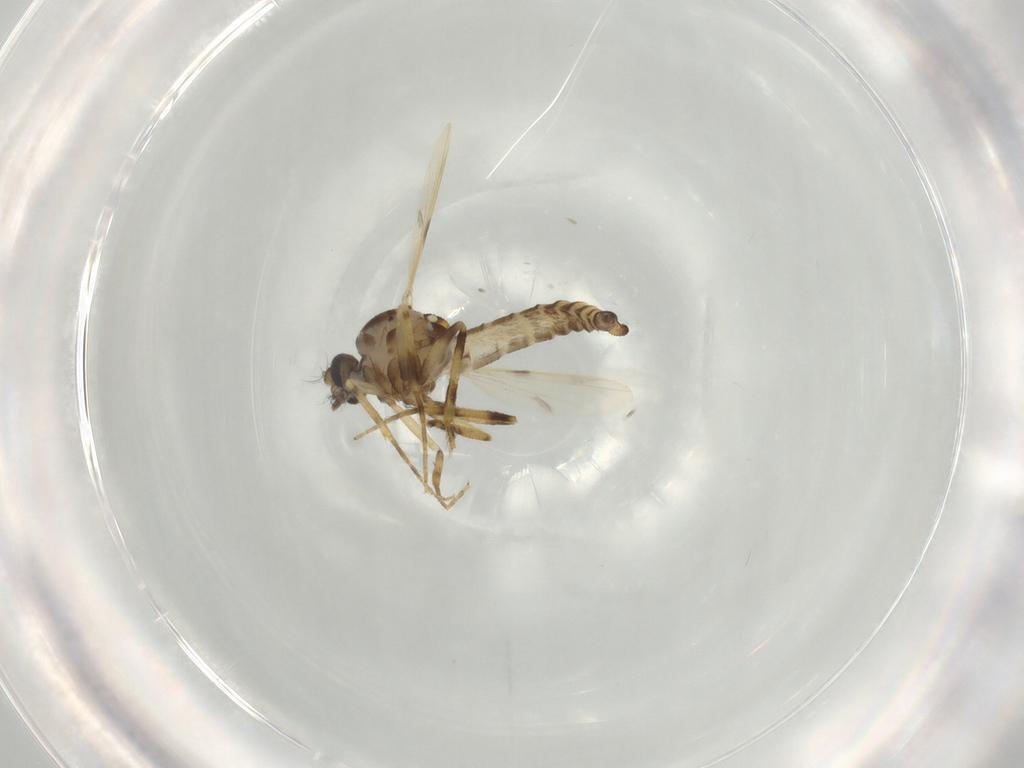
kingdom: Animalia
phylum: Arthropoda
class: Insecta
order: Diptera
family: Ceratopogonidae
